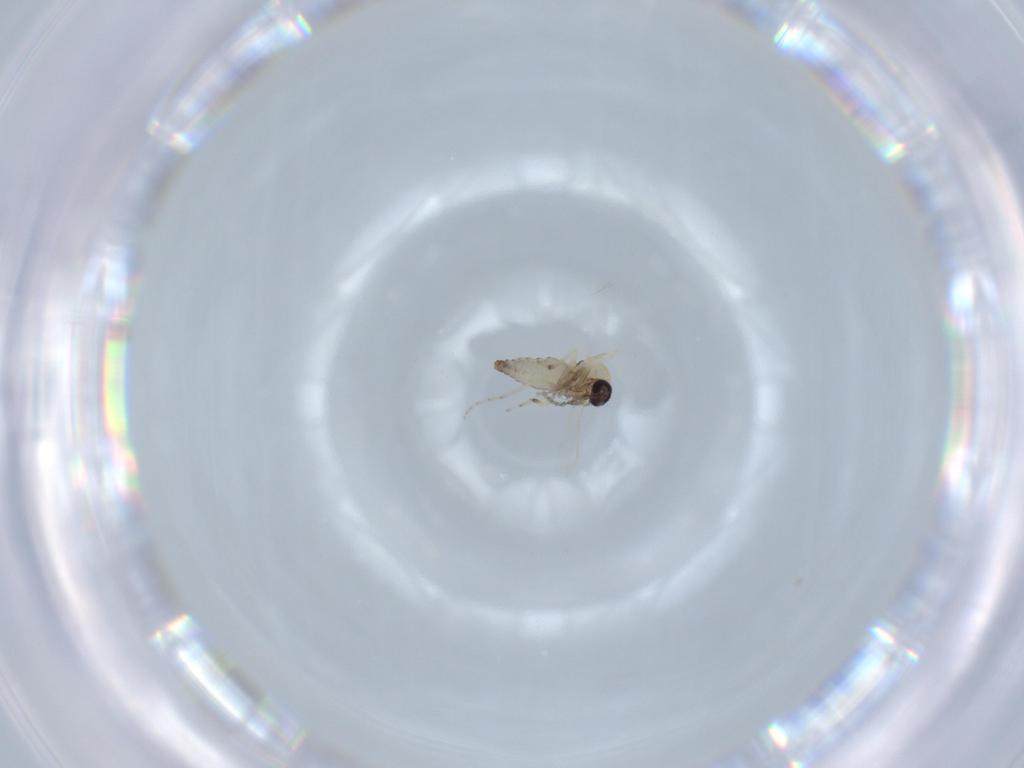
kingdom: Animalia
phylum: Arthropoda
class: Insecta
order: Diptera
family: Ceratopogonidae
